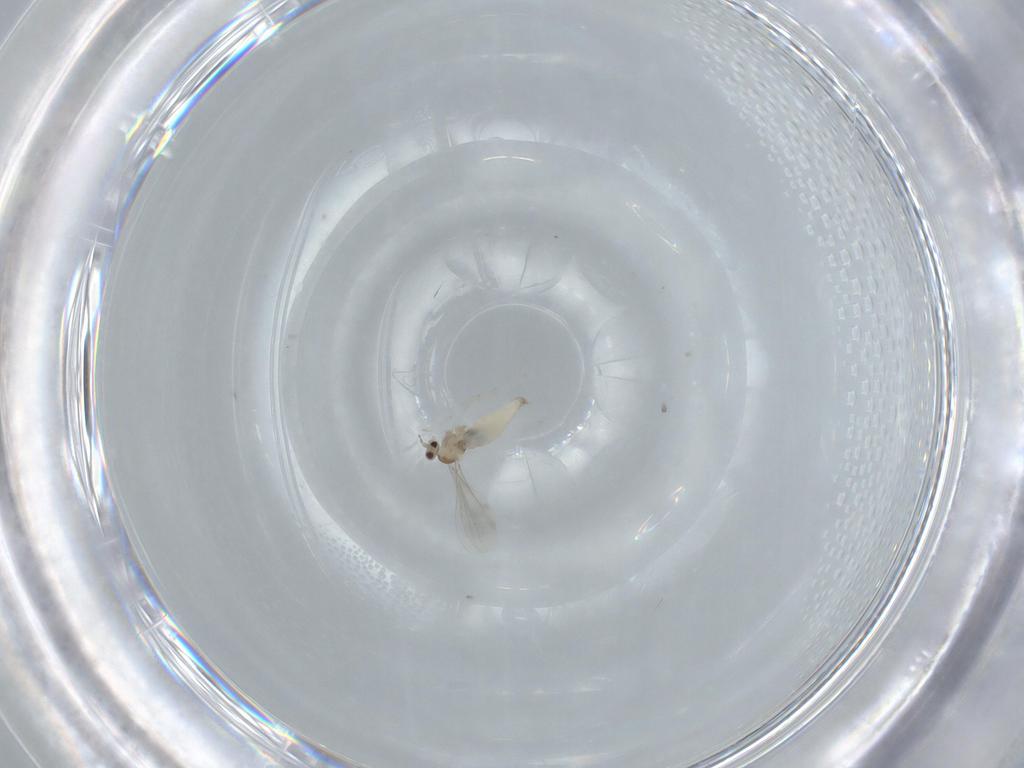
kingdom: Animalia
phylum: Arthropoda
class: Insecta
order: Diptera
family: Cecidomyiidae
